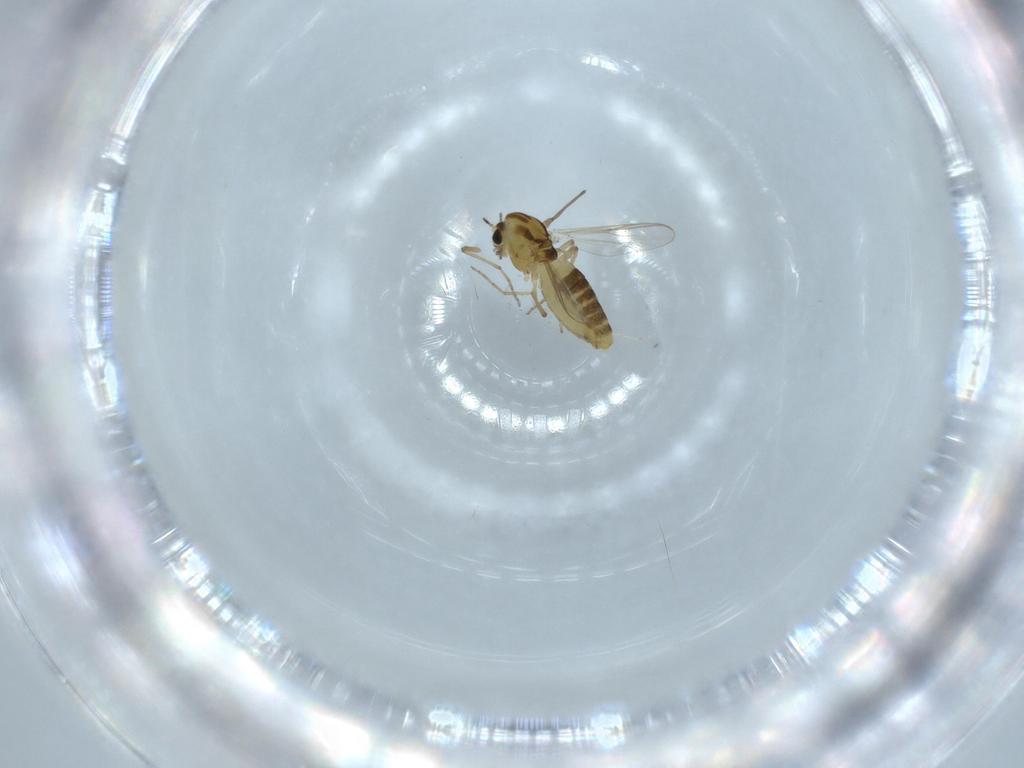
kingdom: Animalia
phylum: Arthropoda
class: Insecta
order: Diptera
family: Chironomidae
